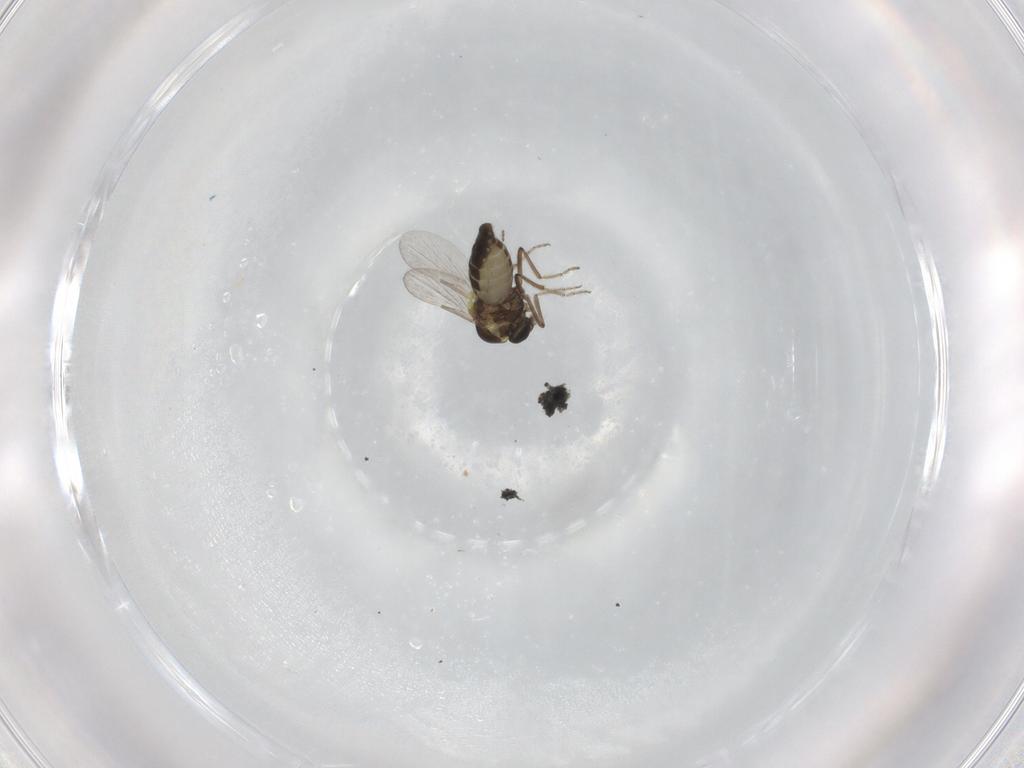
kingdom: Animalia
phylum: Arthropoda
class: Insecta
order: Diptera
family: Ceratopogonidae
